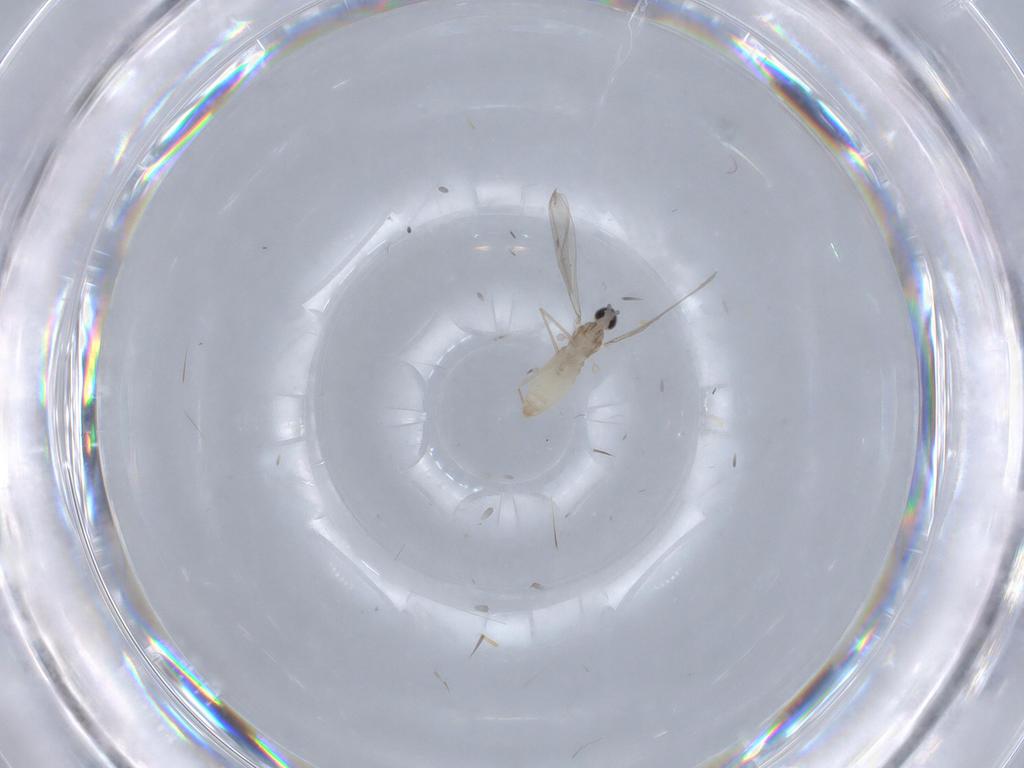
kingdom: Animalia
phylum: Arthropoda
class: Insecta
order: Diptera
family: Cecidomyiidae
